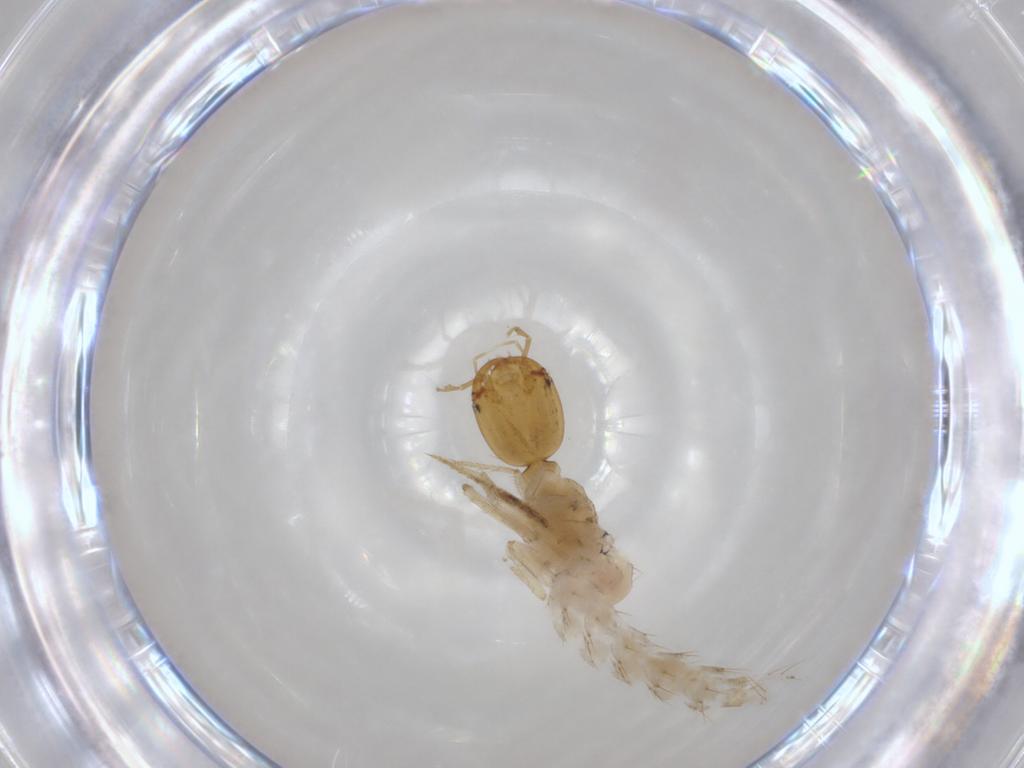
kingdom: Animalia
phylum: Arthropoda
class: Insecta
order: Coleoptera
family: Staphylinidae
